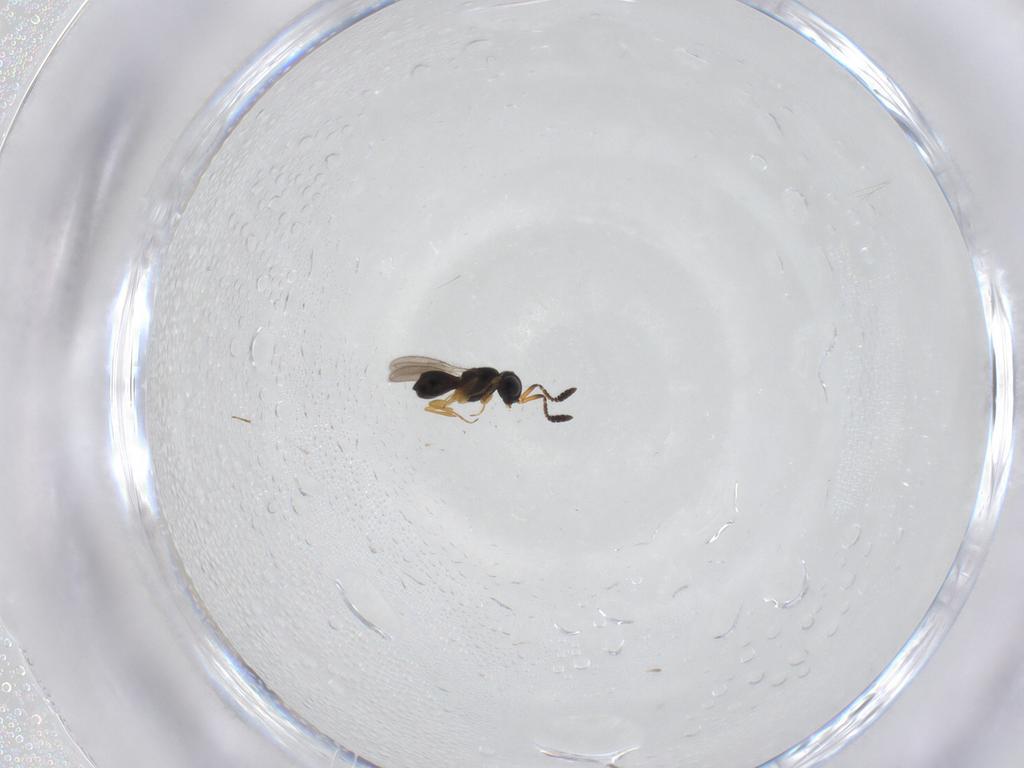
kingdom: Animalia
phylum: Arthropoda
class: Insecta
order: Hymenoptera
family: Scelionidae
